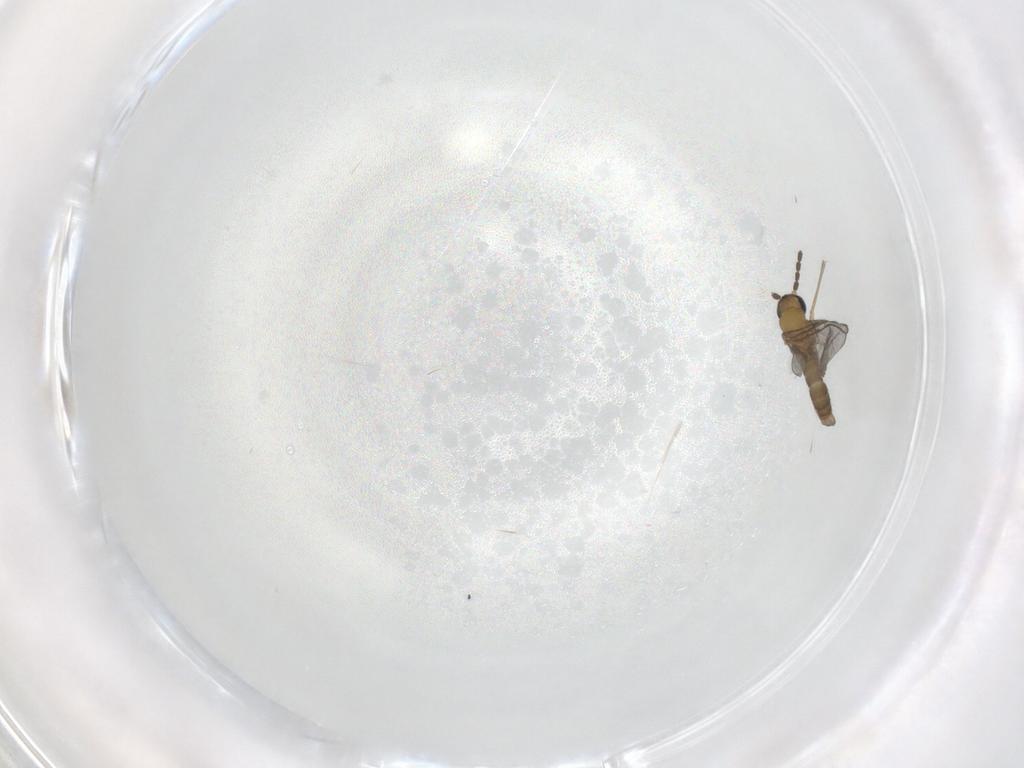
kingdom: Animalia
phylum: Arthropoda
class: Insecta
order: Diptera
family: Sciaridae
